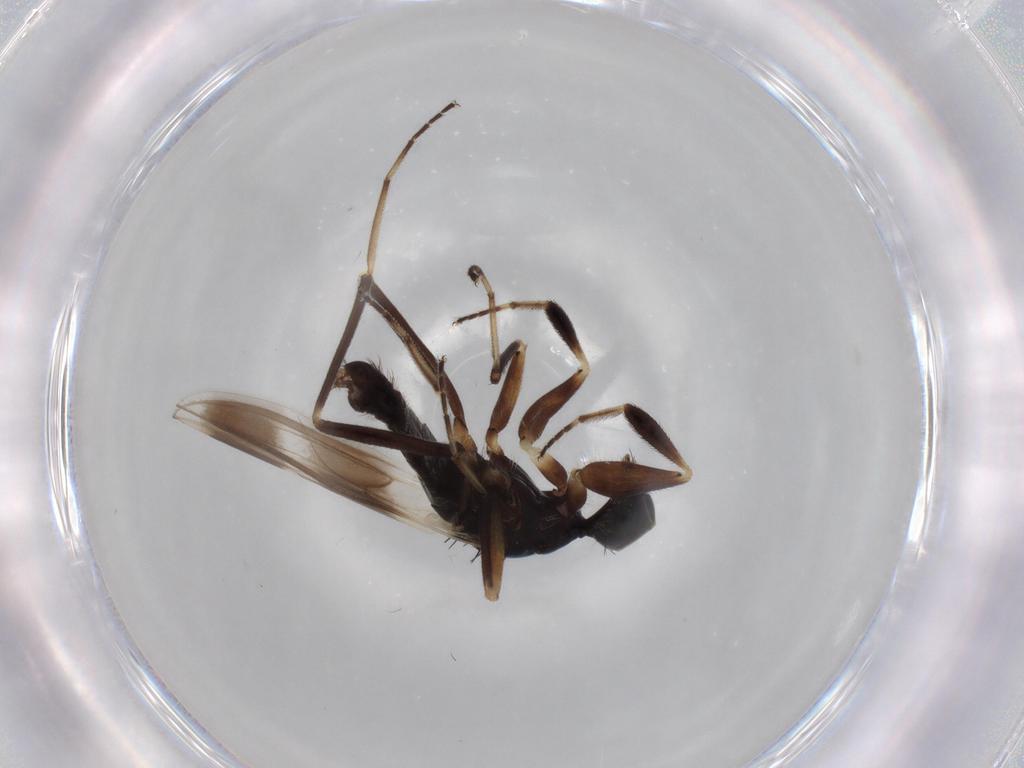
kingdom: Animalia
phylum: Arthropoda
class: Insecta
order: Diptera
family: Hybotidae
